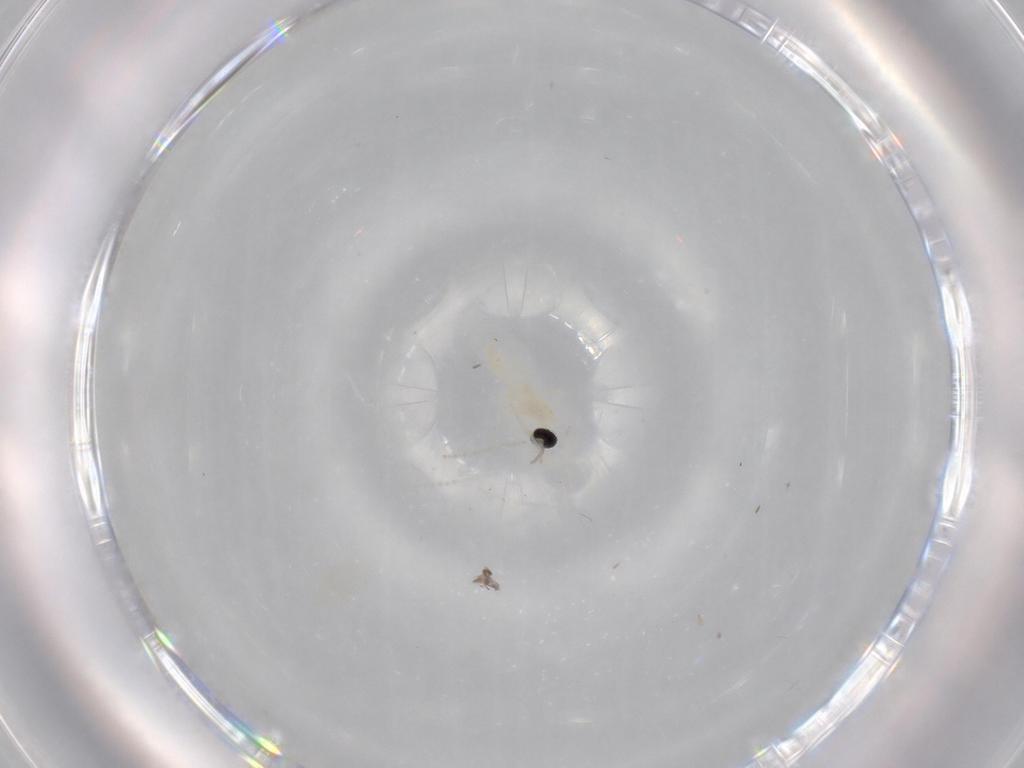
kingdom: Animalia
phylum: Arthropoda
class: Insecta
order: Diptera
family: Cecidomyiidae
